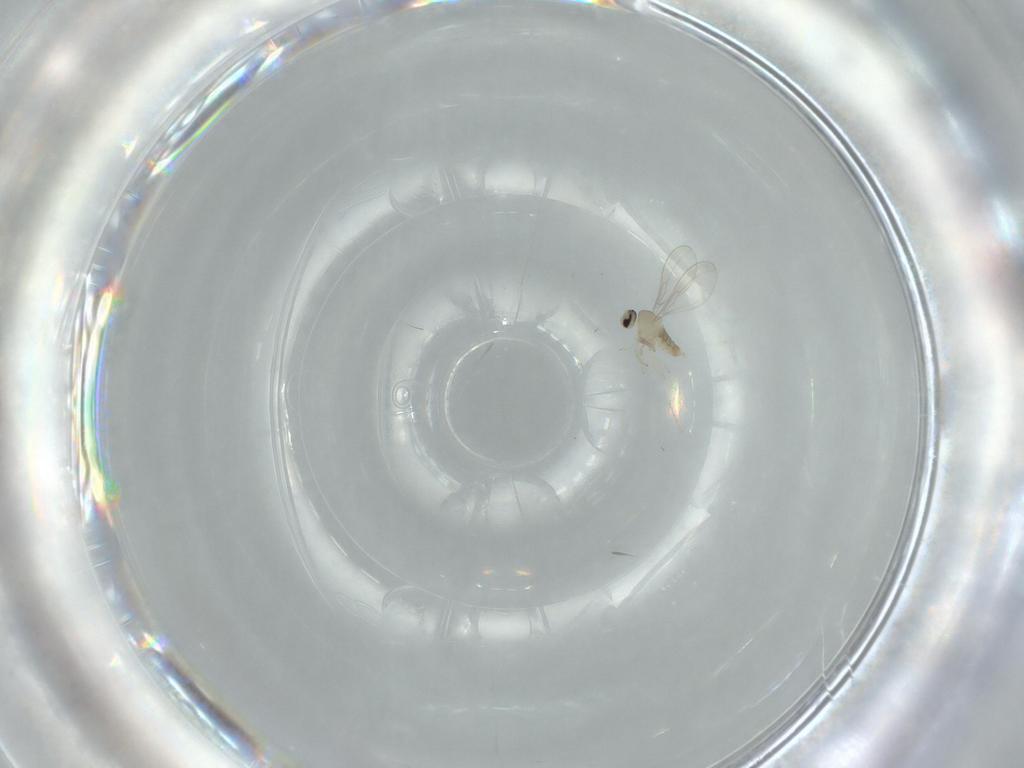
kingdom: Animalia
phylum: Arthropoda
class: Insecta
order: Diptera
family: Cecidomyiidae
